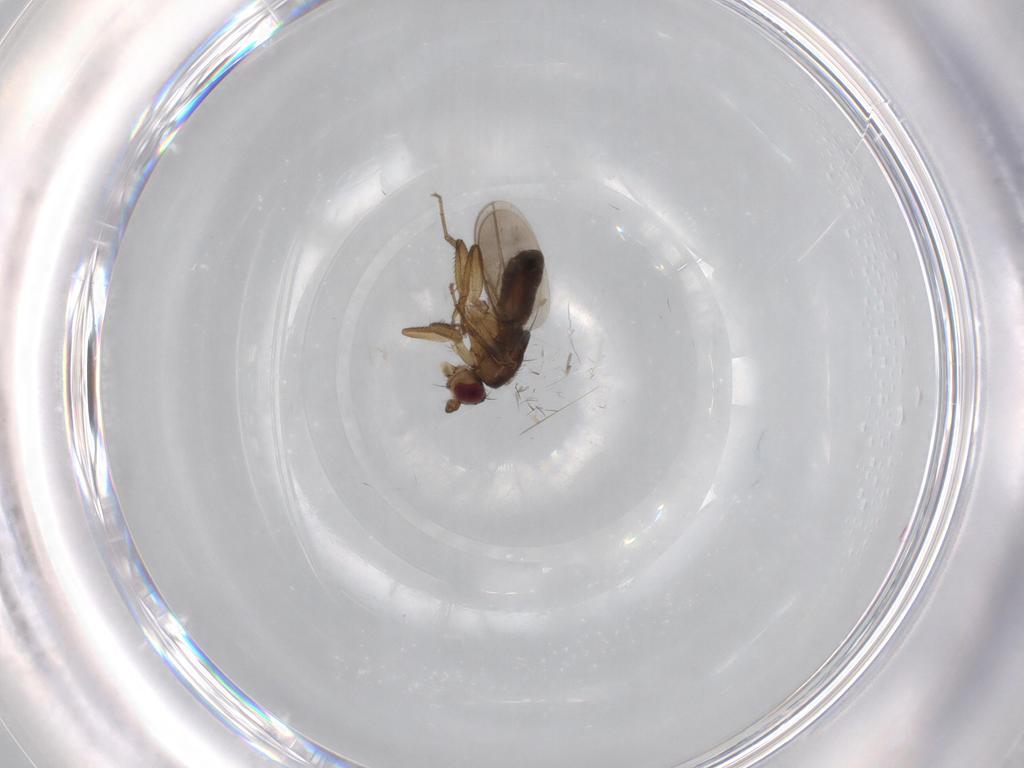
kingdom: Animalia
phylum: Arthropoda
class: Insecta
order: Diptera
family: Sphaeroceridae
